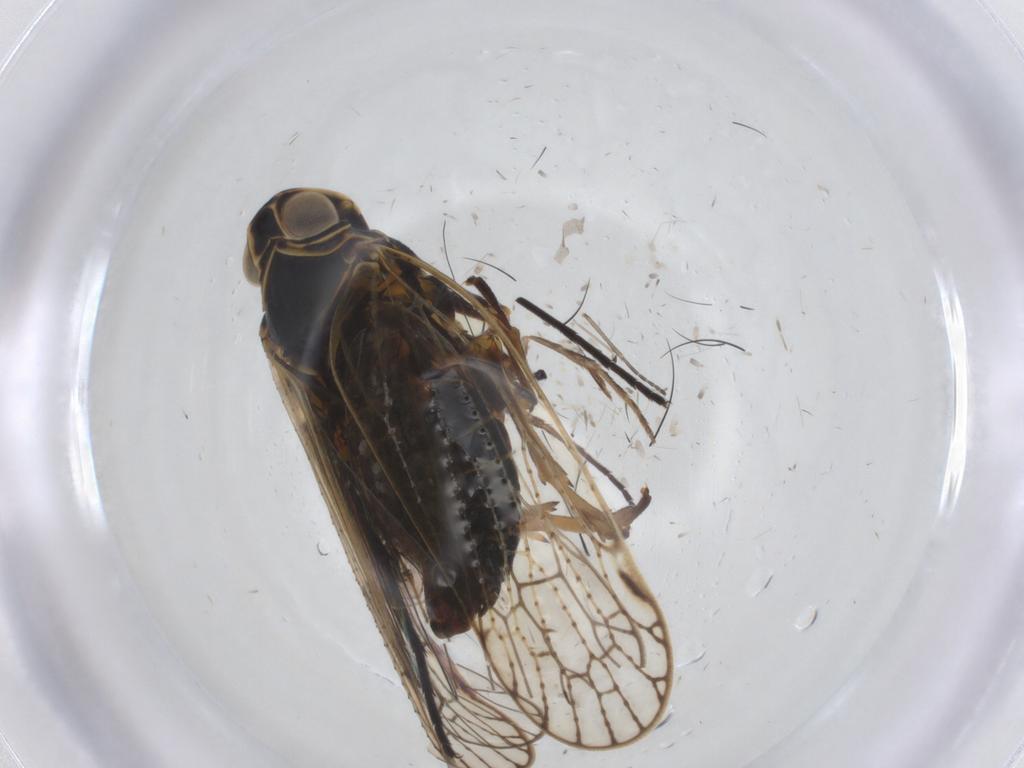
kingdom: Animalia
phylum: Arthropoda
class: Insecta
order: Hemiptera
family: Cixiidae
